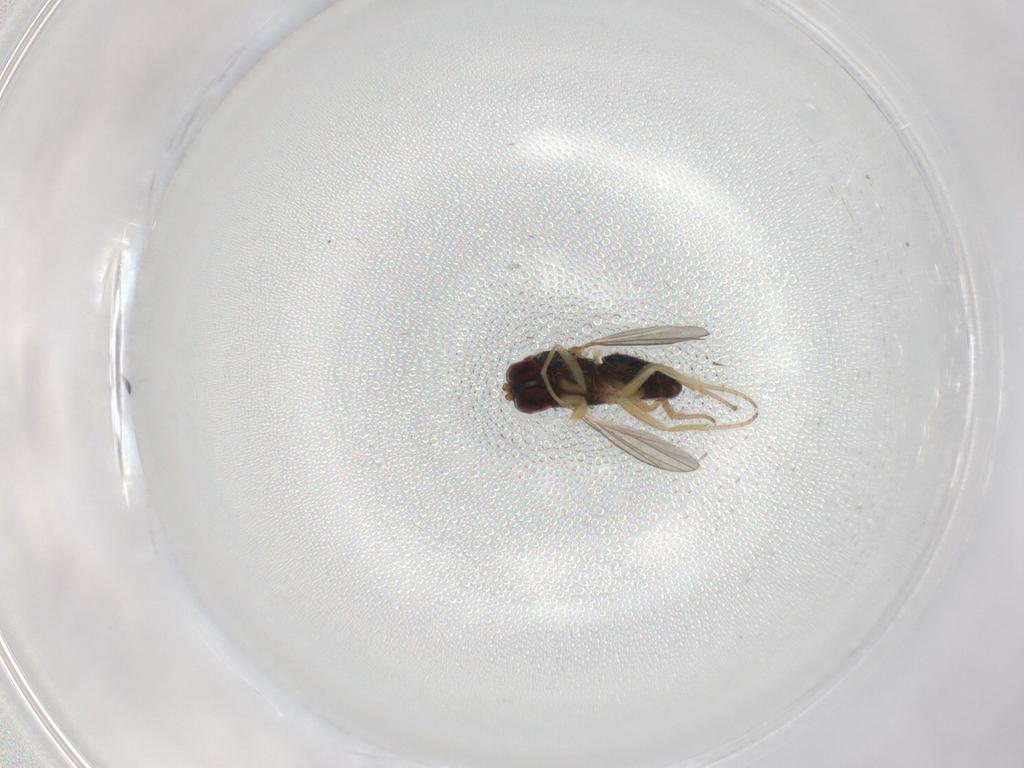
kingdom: Animalia
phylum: Arthropoda
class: Insecta
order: Diptera
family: Dolichopodidae
